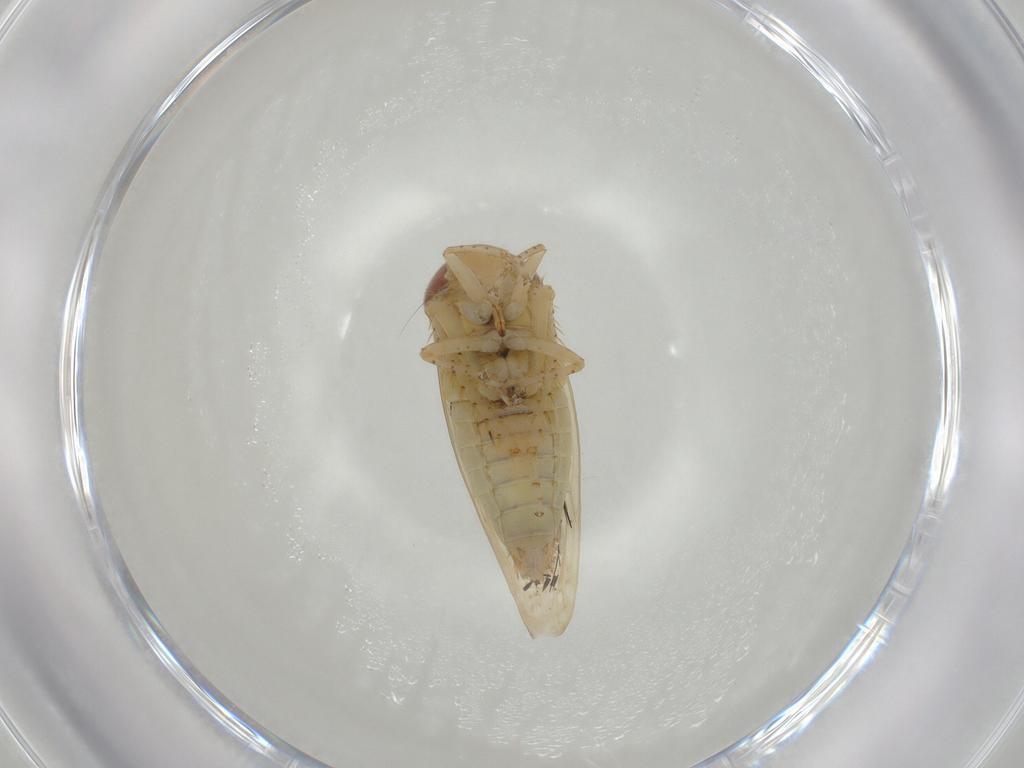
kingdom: Animalia
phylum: Arthropoda
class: Insecta
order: Hemiptera
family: Cicadellidae
